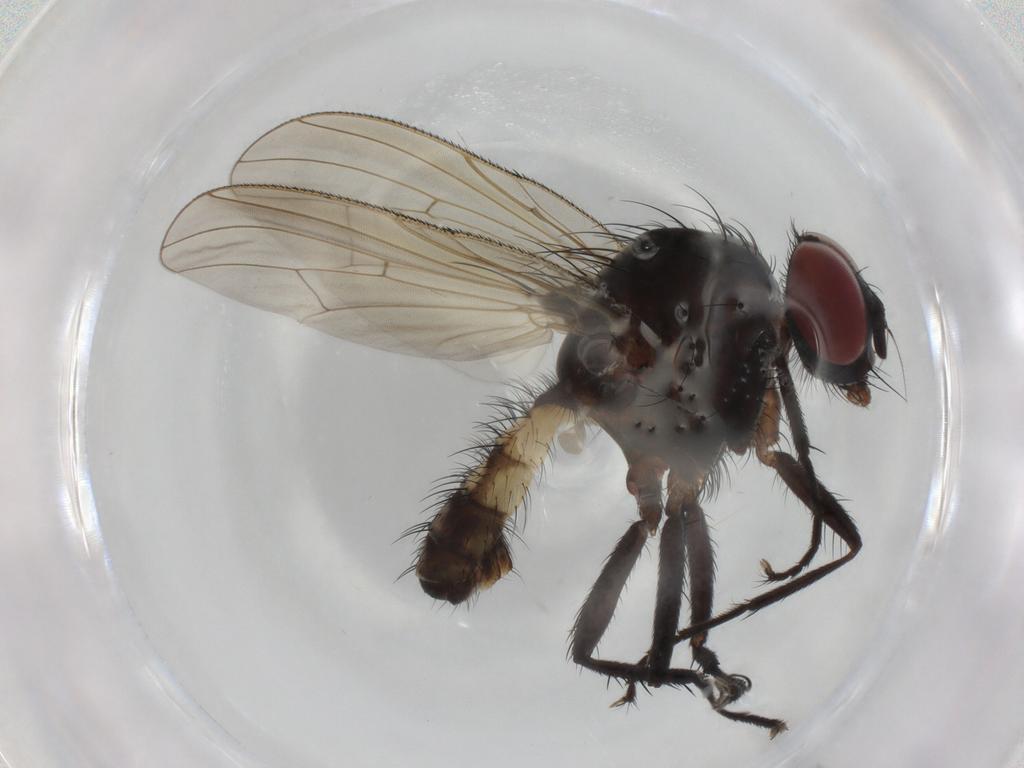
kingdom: Animalia
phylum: Arthropoda
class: Insecta
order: Diptera
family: Anthomyiidae
